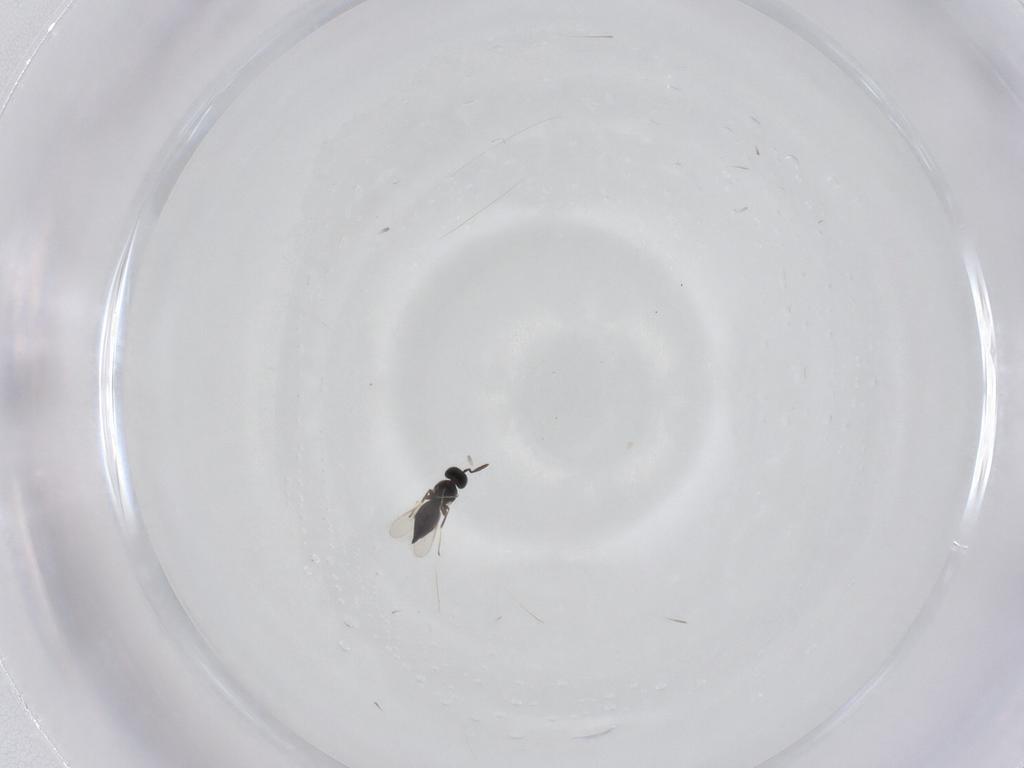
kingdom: Animalia
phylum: Arthropoda
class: Insecta
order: Hymenoptera
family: Scelionidae
